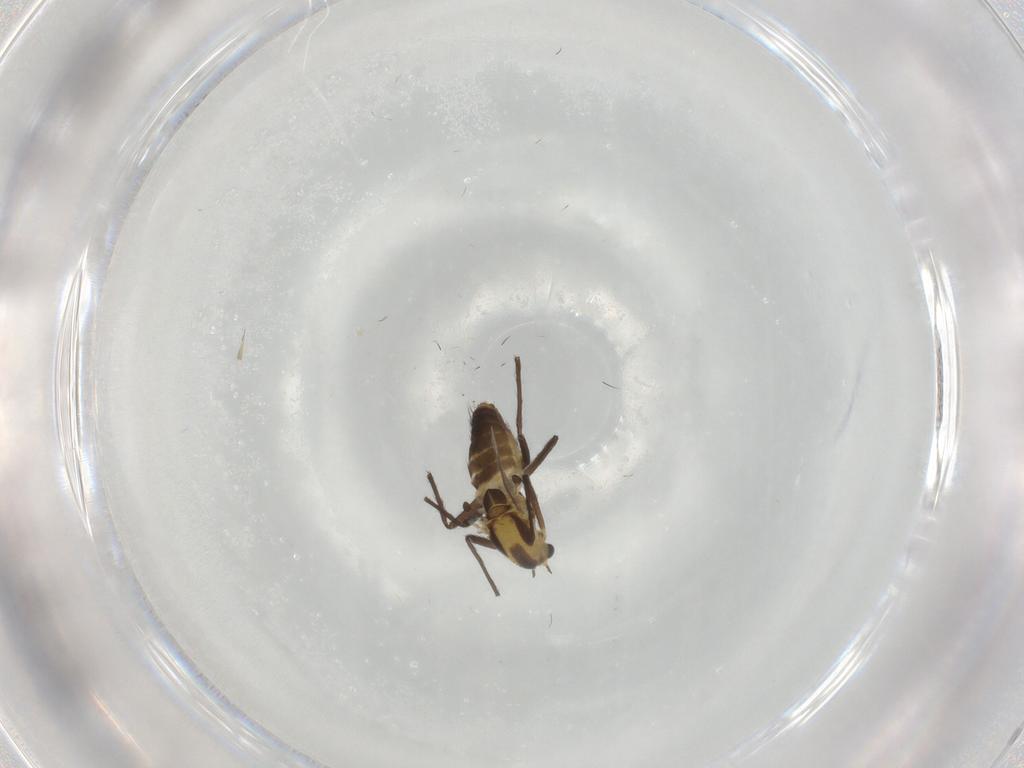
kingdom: Animalia
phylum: Arthropoda
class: Insecta
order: Diptera
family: Chironomidae
